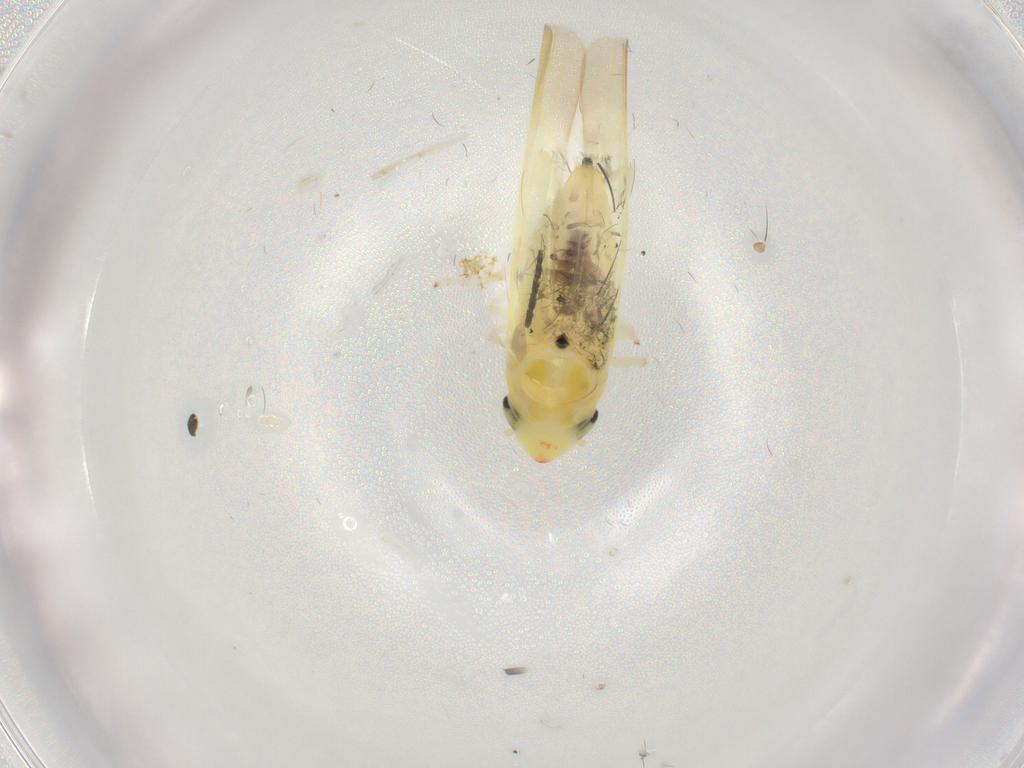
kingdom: Animalia
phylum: Arthropoda
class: Insecta
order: Hemiptera
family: Cicadellidae
